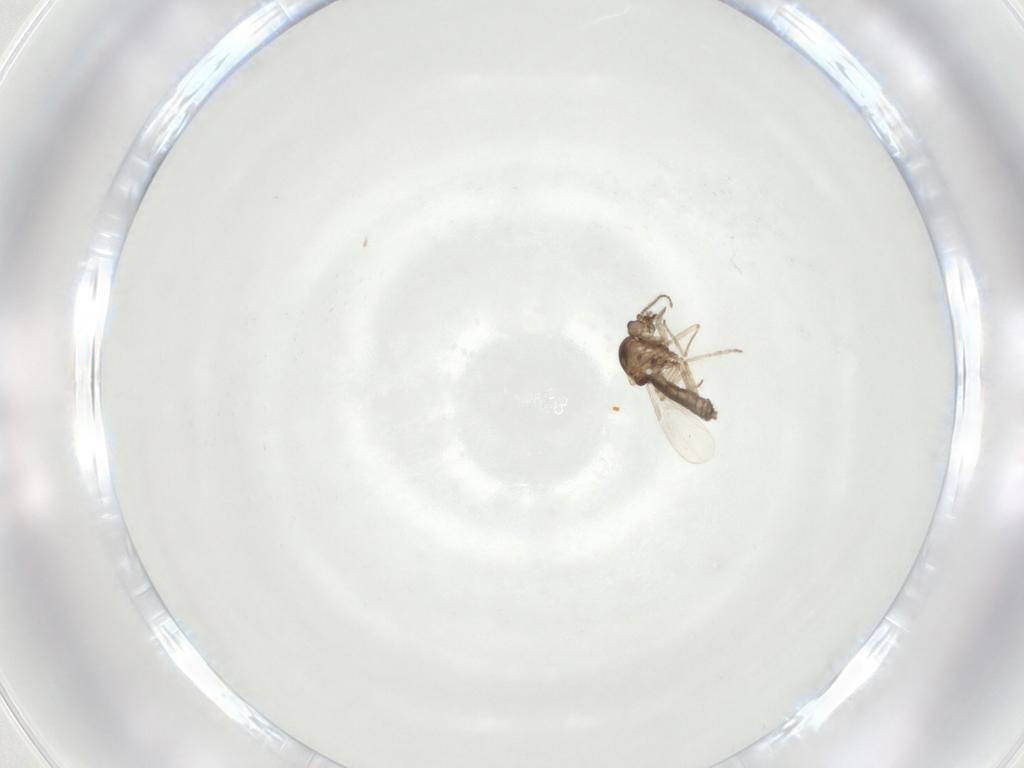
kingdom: Animalia
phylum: Arthropoda
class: Insecta
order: Diptera
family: Ceratopogonidae
